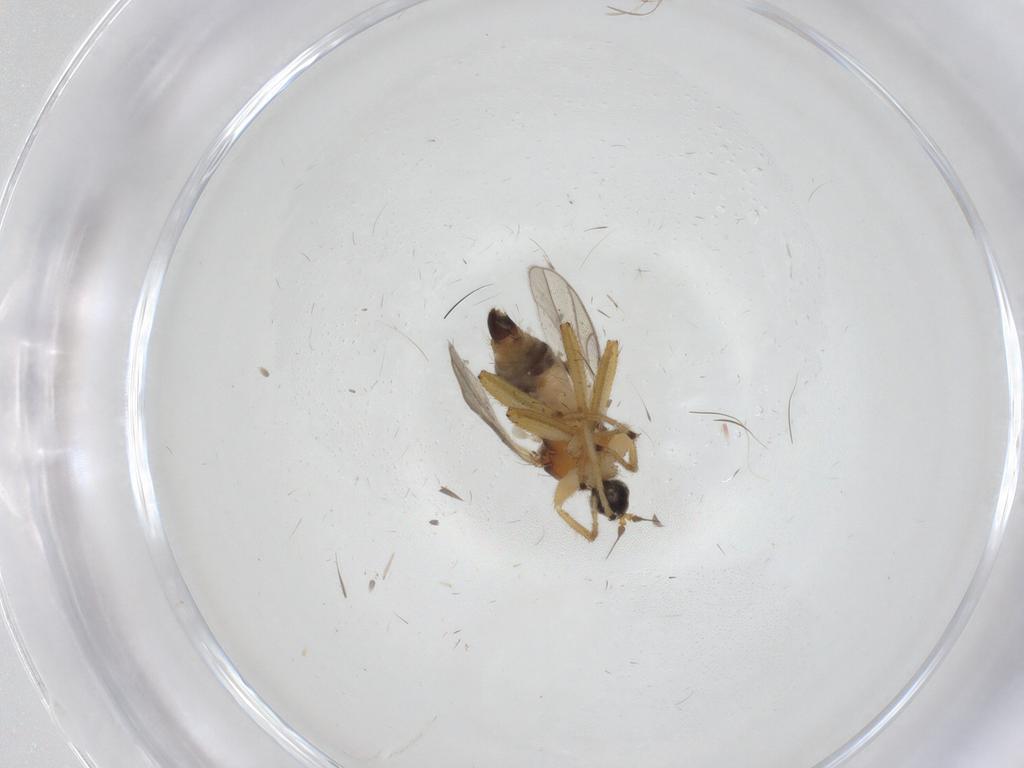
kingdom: Animalia
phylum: Arthropoda
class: Insecta
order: Diptera
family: Hybotidae
